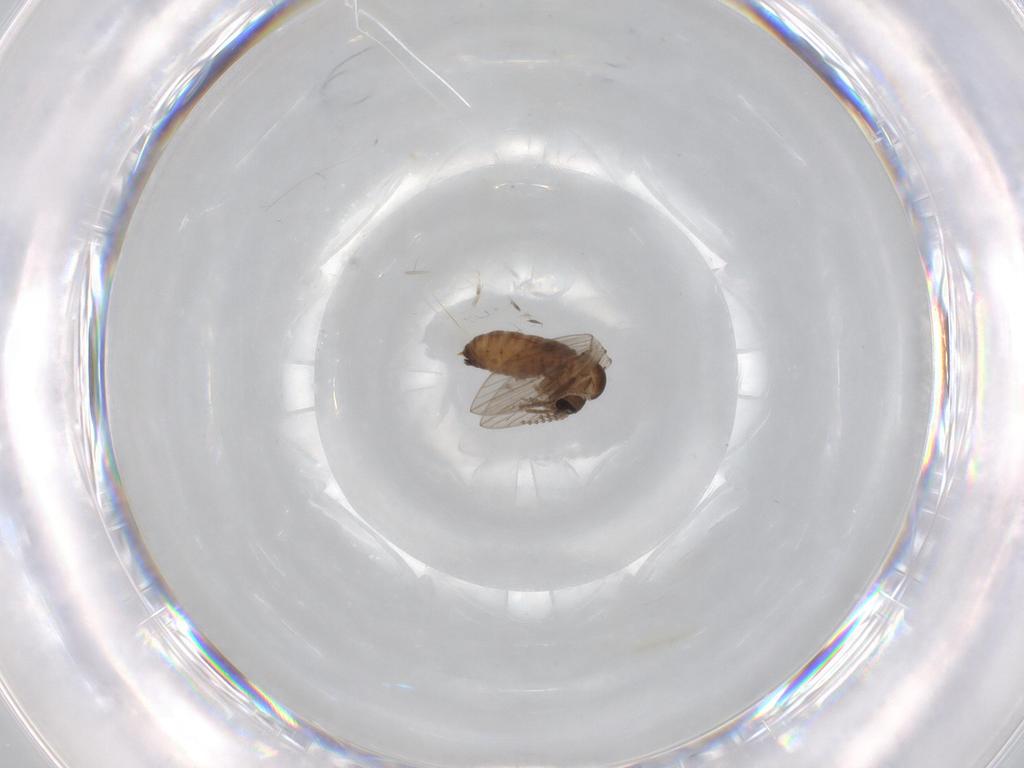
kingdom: Animalia
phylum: Arthropoda
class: Insecta
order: Diptera
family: Psychodidae
